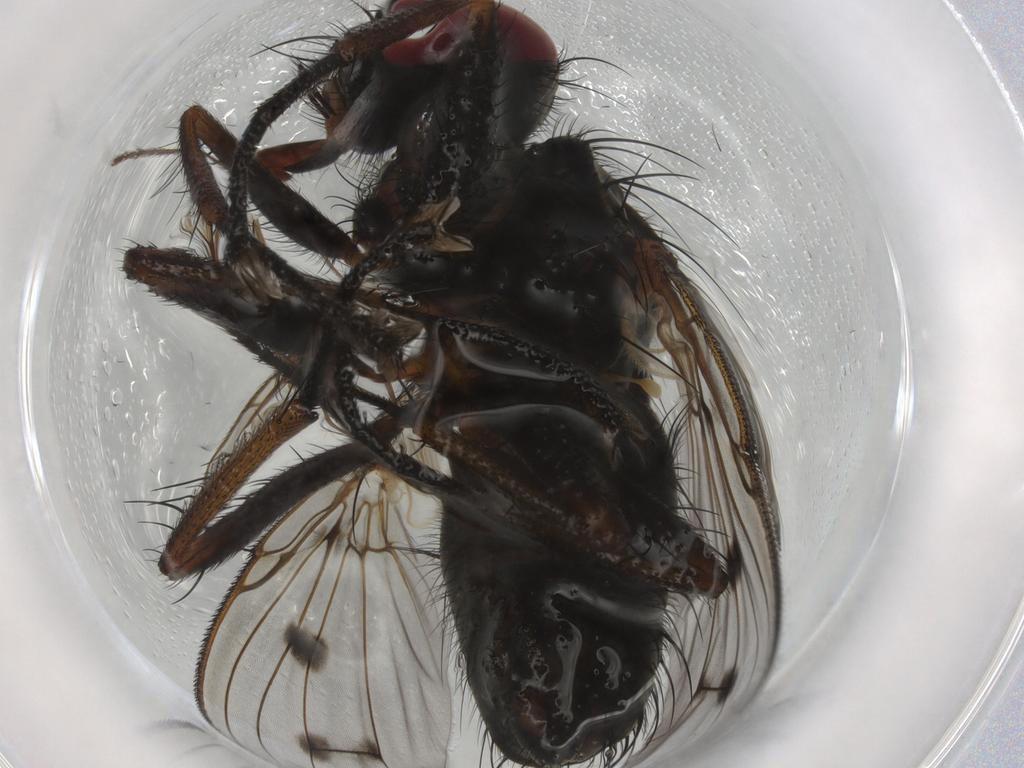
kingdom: Animalia
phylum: Arthropoda
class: Insecta
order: Diptera
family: Muscidae
